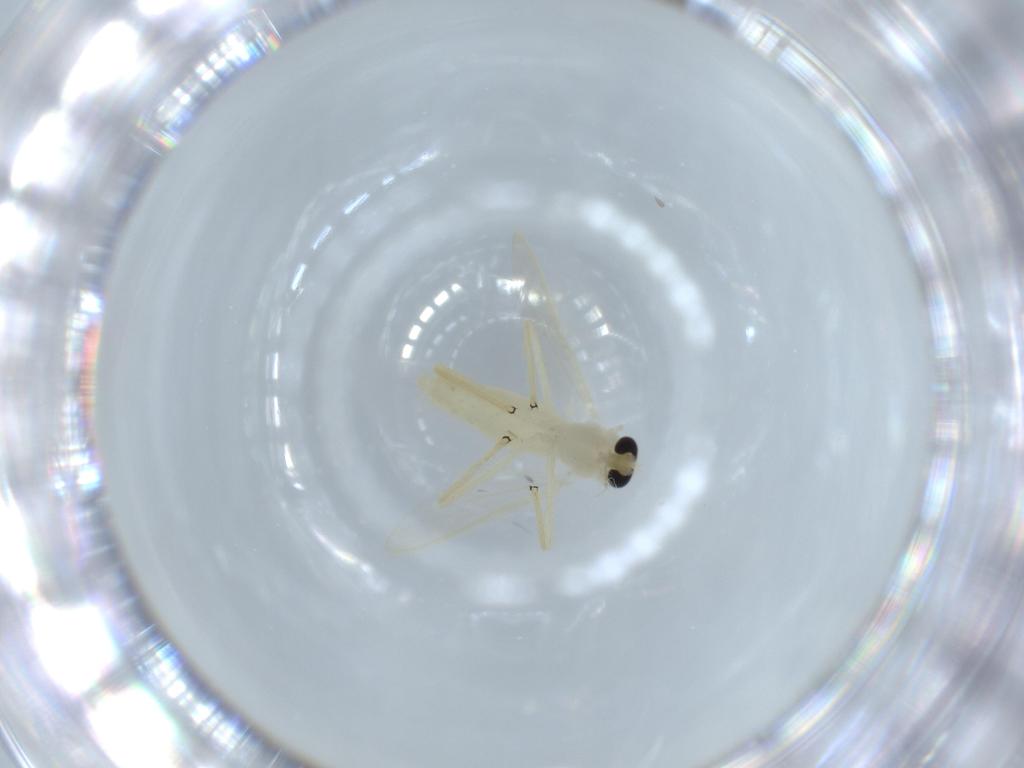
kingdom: Animalia
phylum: Arthropoda
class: Insecta
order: Diptera
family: Chironomidae
